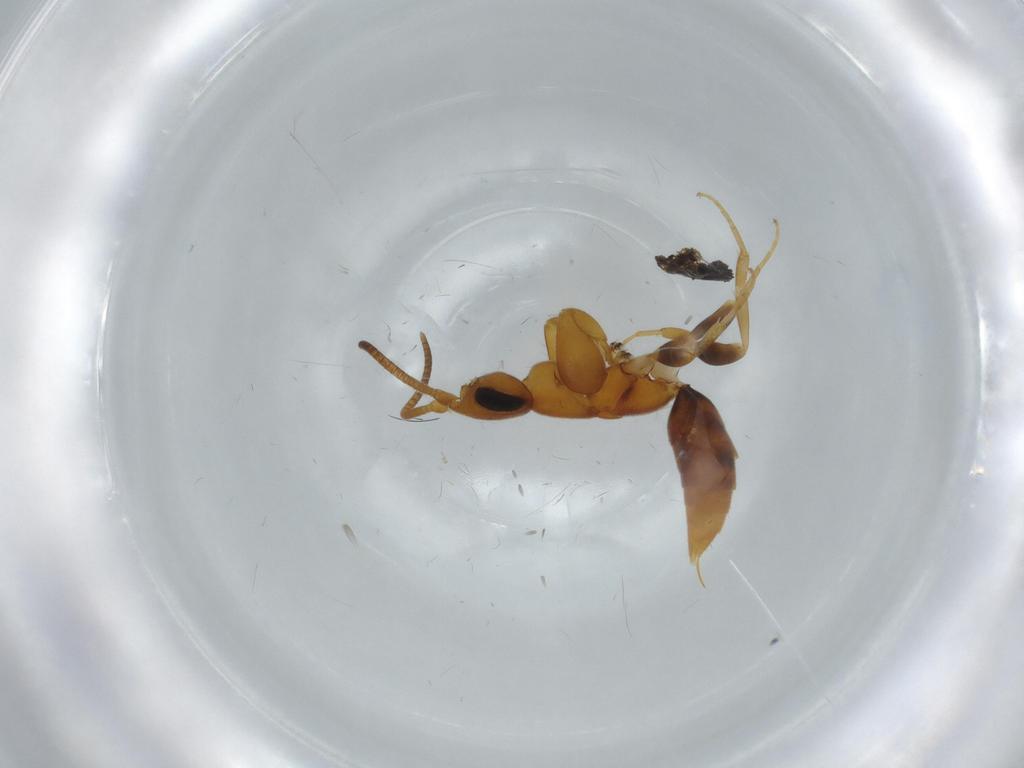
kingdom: Animalia
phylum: Arthropoda
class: Insecta
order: Hymenoptera
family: Sclerogibbidae
